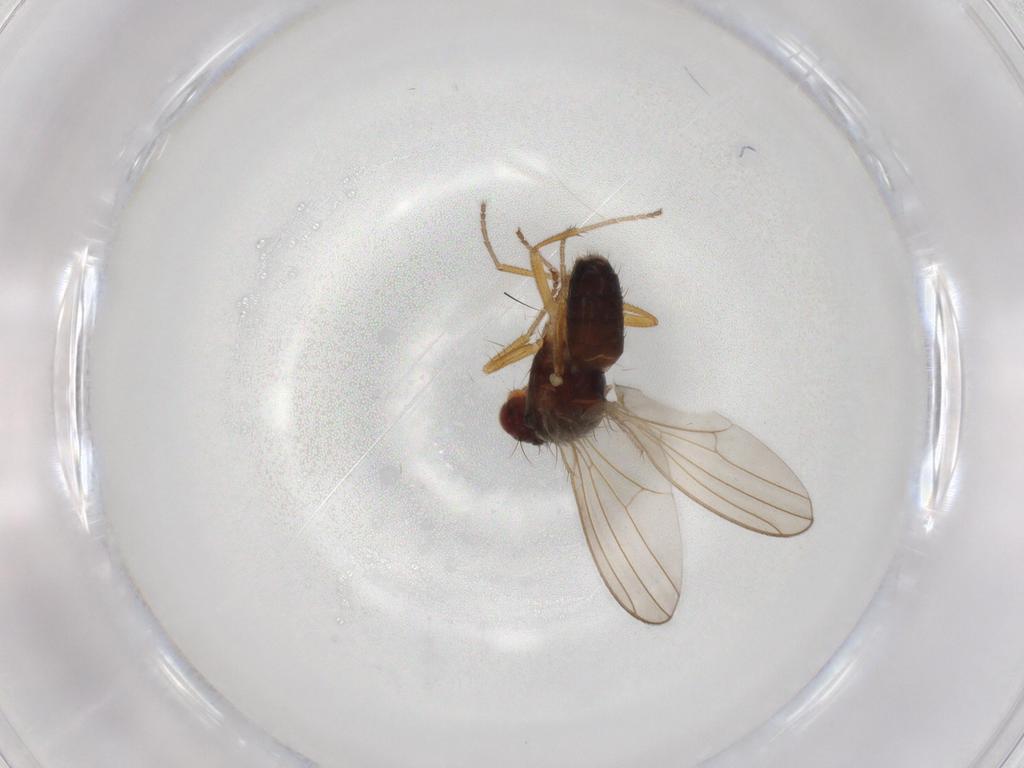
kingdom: Animalia
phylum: Arthropoda
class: Insecta
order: Diptera
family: Drosophilidae
